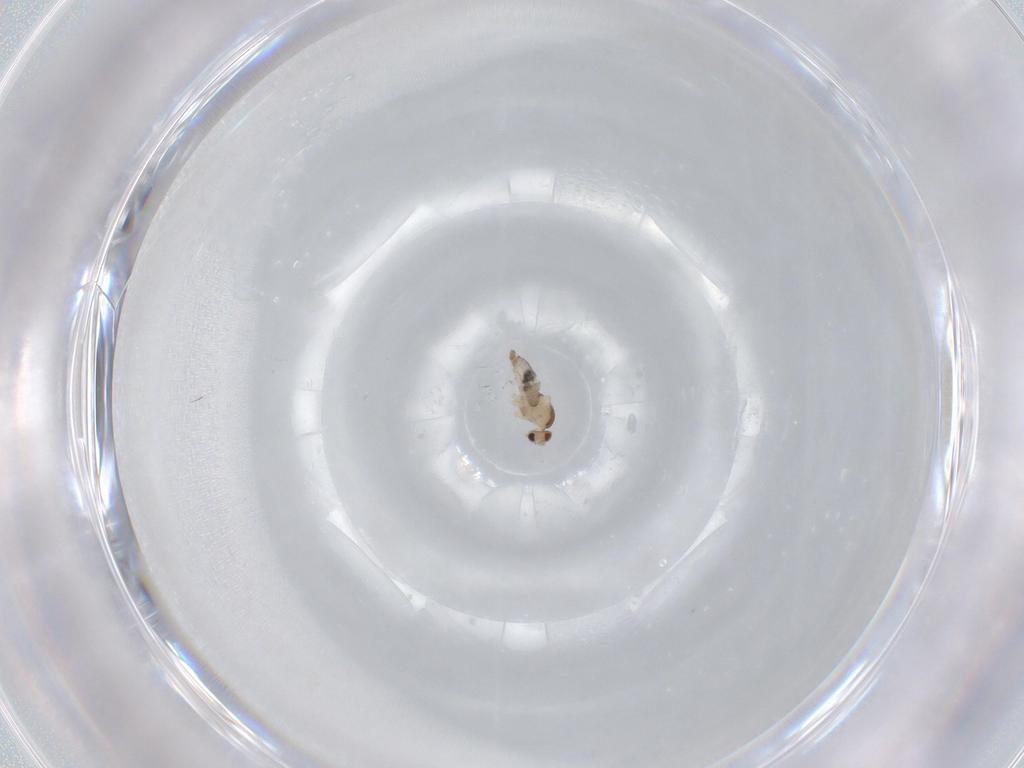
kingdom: Animalia
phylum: Arthropoda
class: Insecta
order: Diptera
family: Cecidomyiidae
